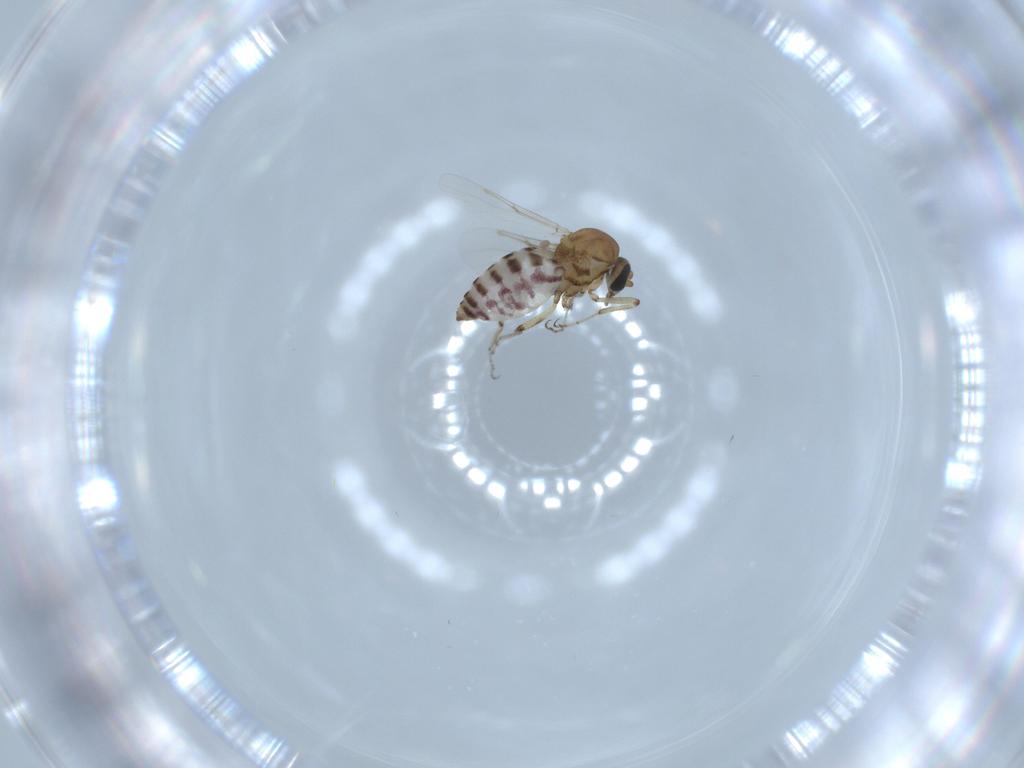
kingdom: Animalia
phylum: Arthropoda
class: Insecta
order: Diptera
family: Ceratopogonidae
